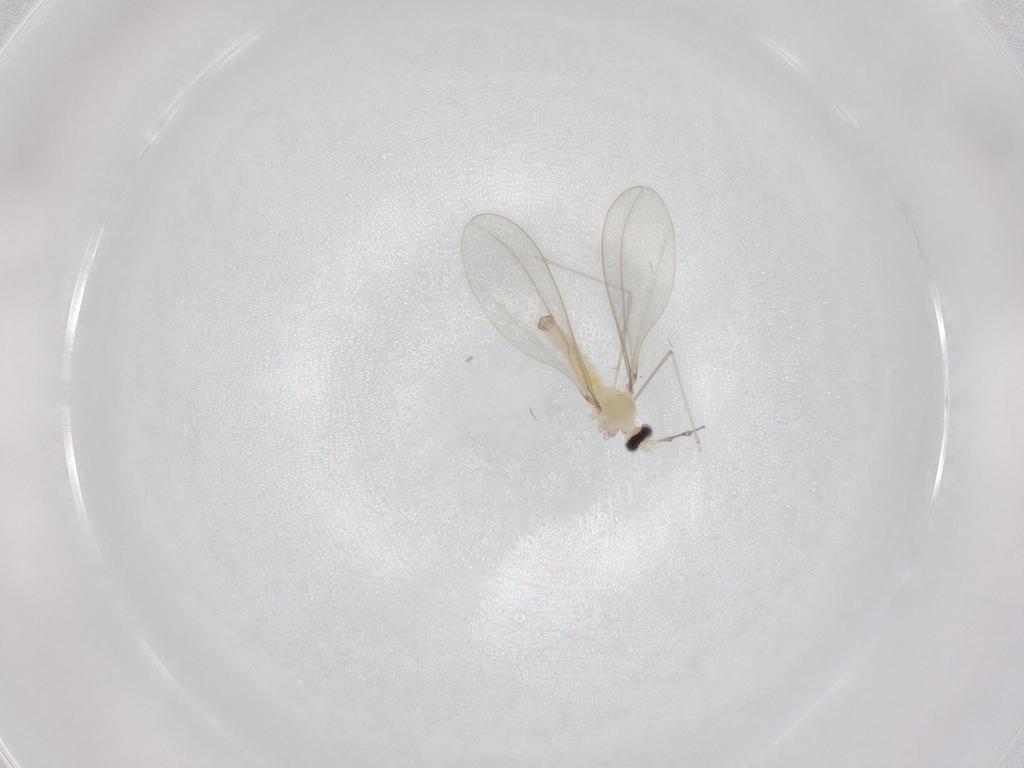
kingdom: Animalia
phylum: Arthropoda
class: Insecta
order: Diptera
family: Cecidomyiidae
